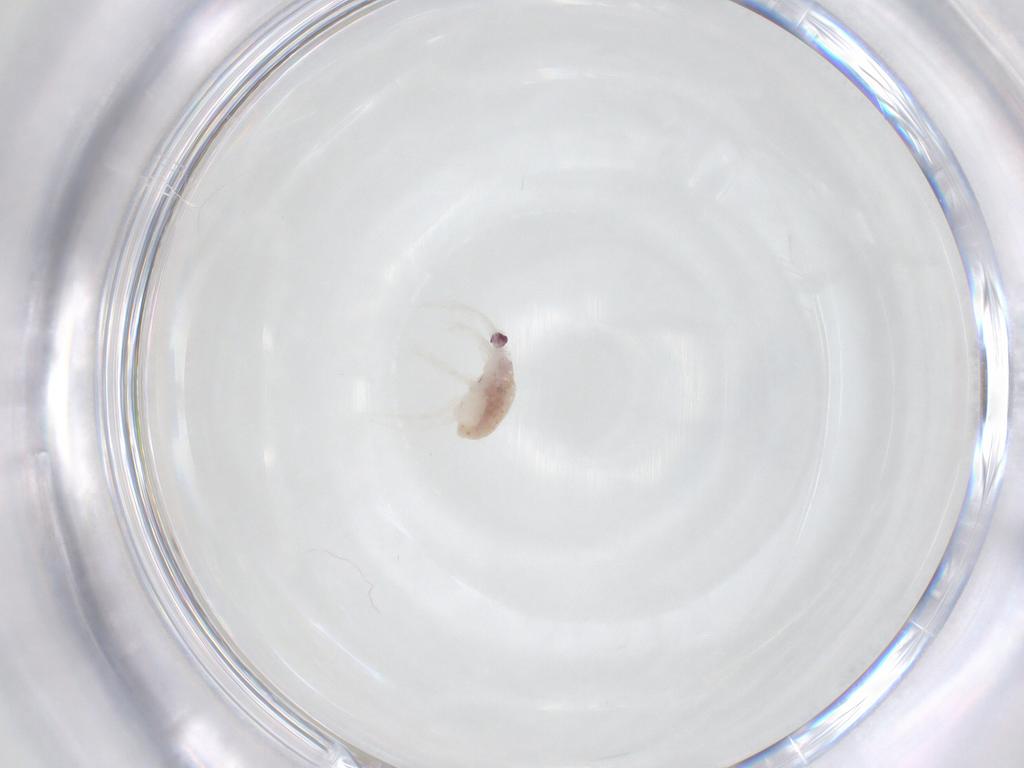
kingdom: Animalia
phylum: Arthropoda
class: Arachnida
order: Trombidiformes
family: Rhagidiidae
